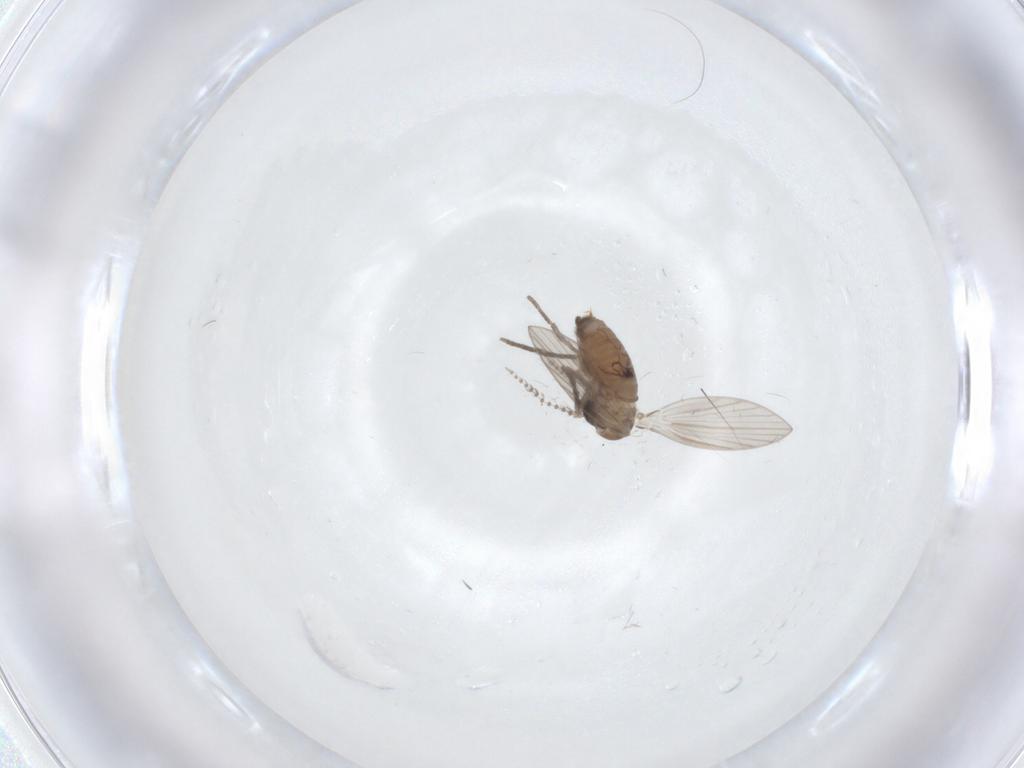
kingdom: Animalia
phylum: Arthropoda
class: Insecta
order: Diptera
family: Psychodidae
